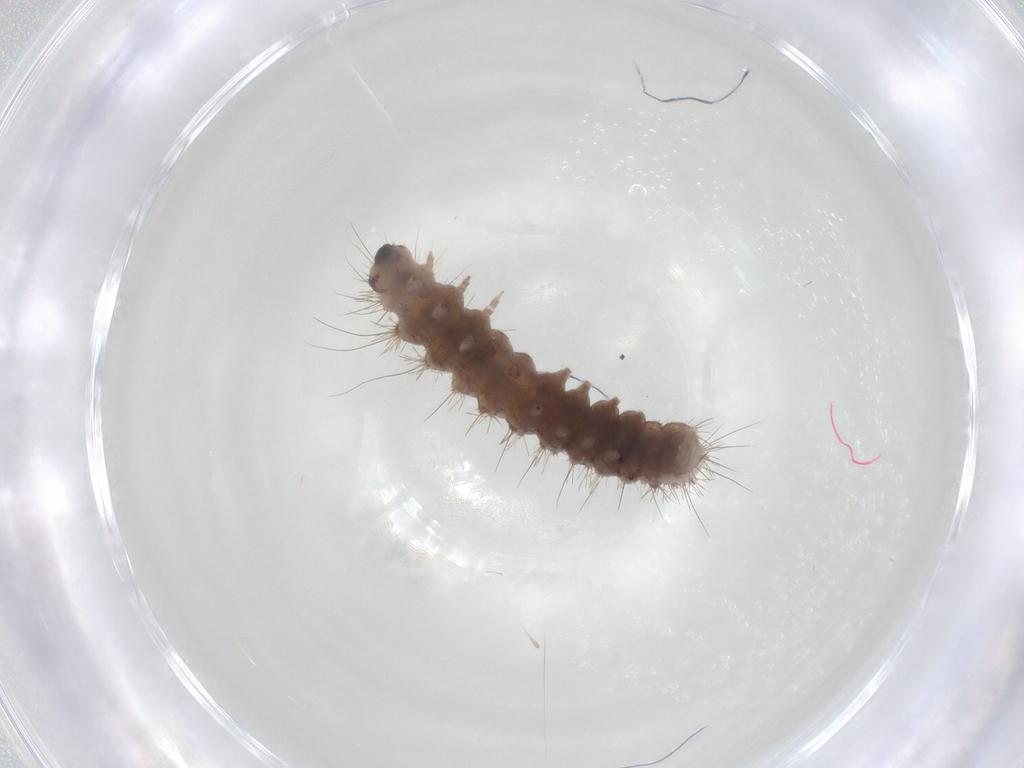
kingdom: Animalia
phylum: Arthropoda
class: Insecta
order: Lepidoptera
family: Erebidae
